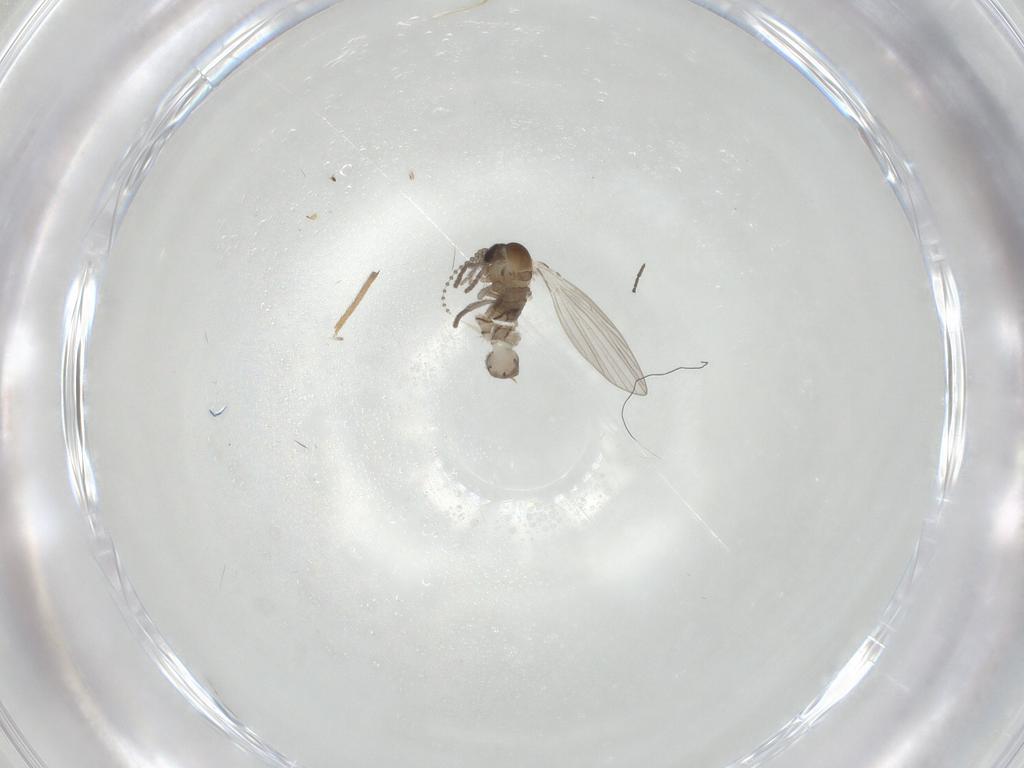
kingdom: Animalia
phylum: Arthropoda
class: Insecta
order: Diptera
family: Psychodidae
